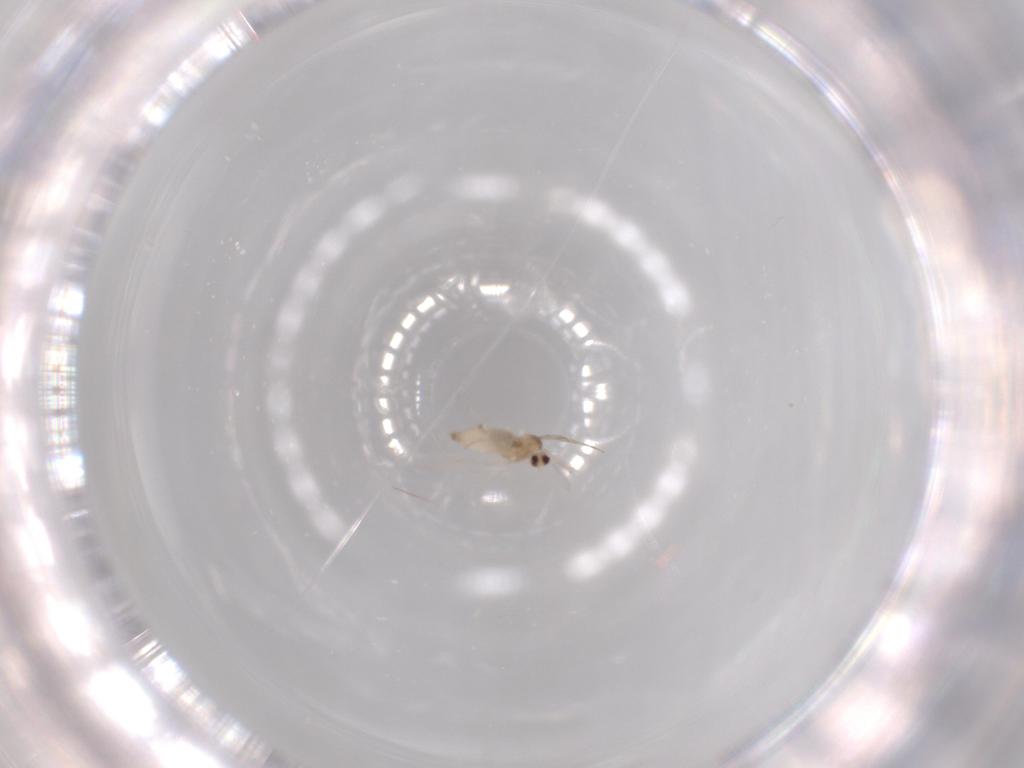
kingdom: Animalia
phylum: Arthropoda
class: Insecta
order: Diptera
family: Cecidomyiidae
